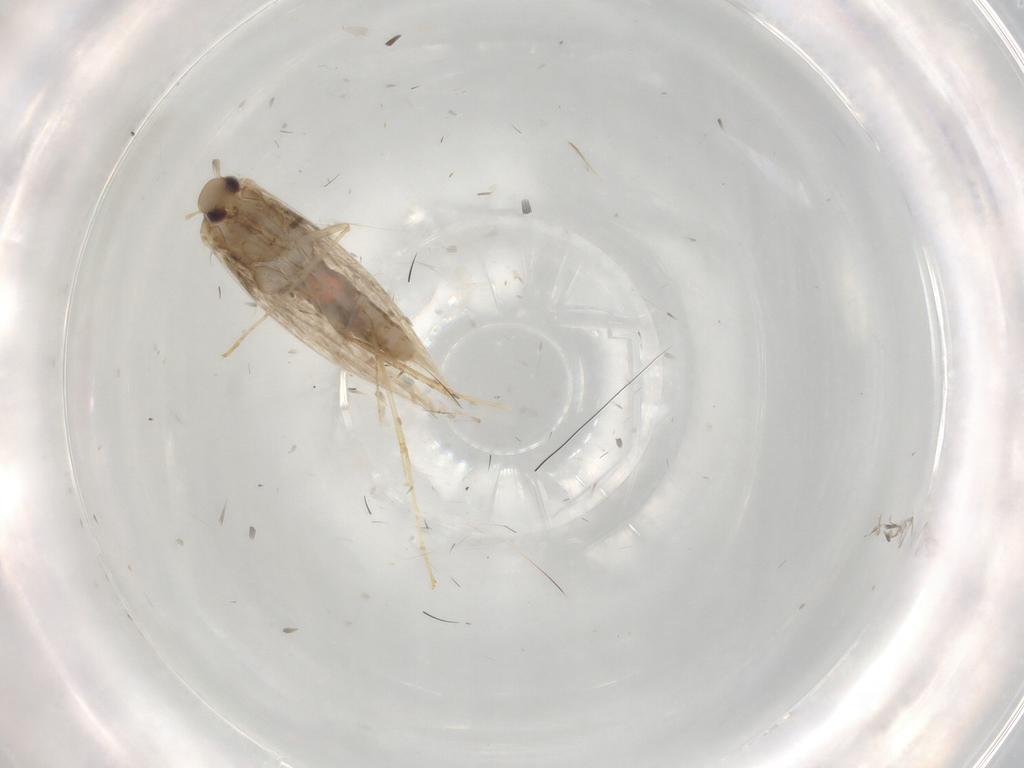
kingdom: Animalia
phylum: Arthropoda
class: Insecta
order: Lepidoptera
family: Gracillariidae
